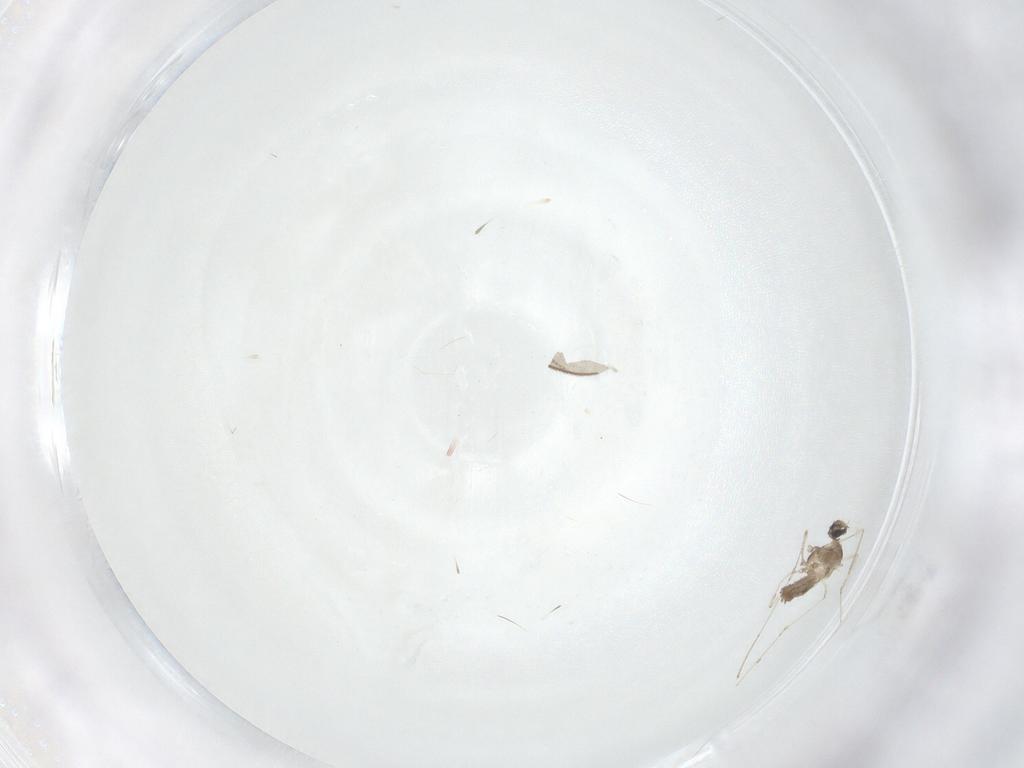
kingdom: Animalia
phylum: Arthropoda
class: Insecta
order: Diptera
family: Cecidomyiidae
